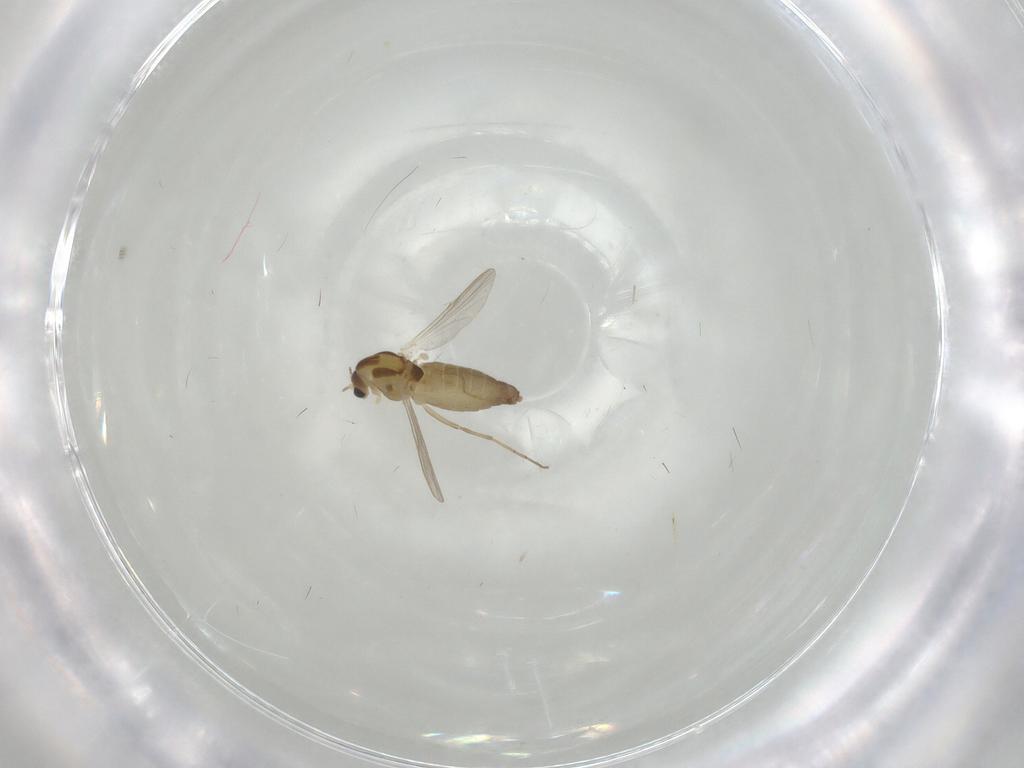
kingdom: Animalia
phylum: Arthropoda
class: Insecta
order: Diptera
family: Chironomidae
